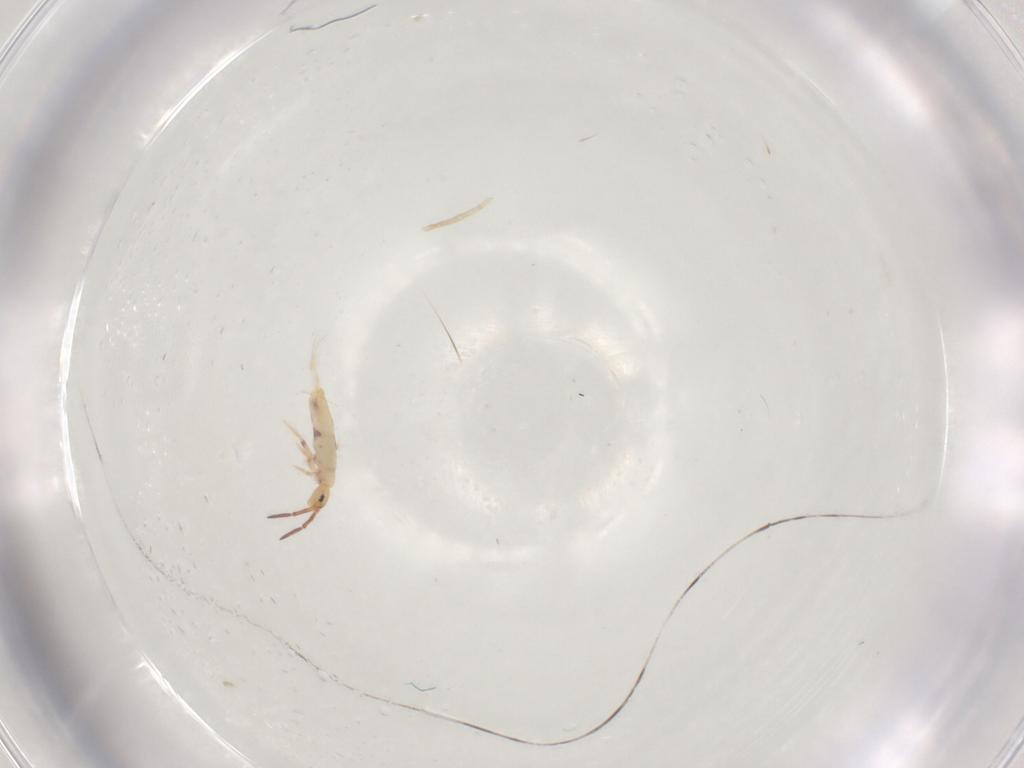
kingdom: Animalia
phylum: Arthropoda
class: Collembola
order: Poduromorpha
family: Hypogastruridae
